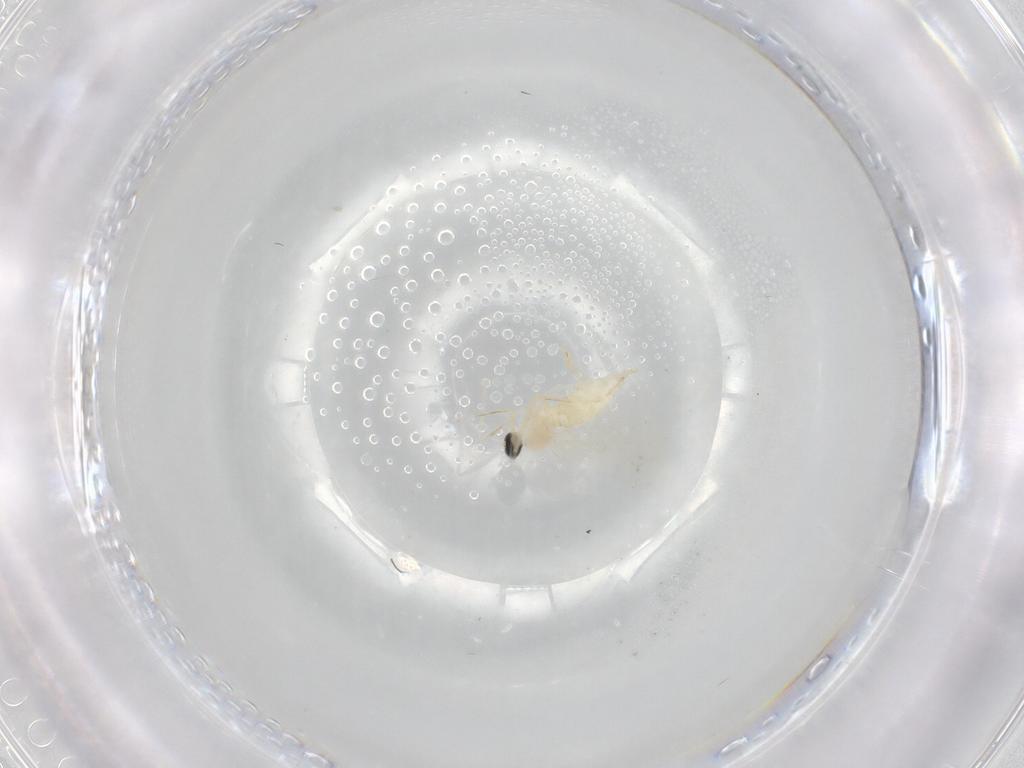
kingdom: Animalia
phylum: Arthropoda
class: Insecta
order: Diptera
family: Cecidomyiidae
